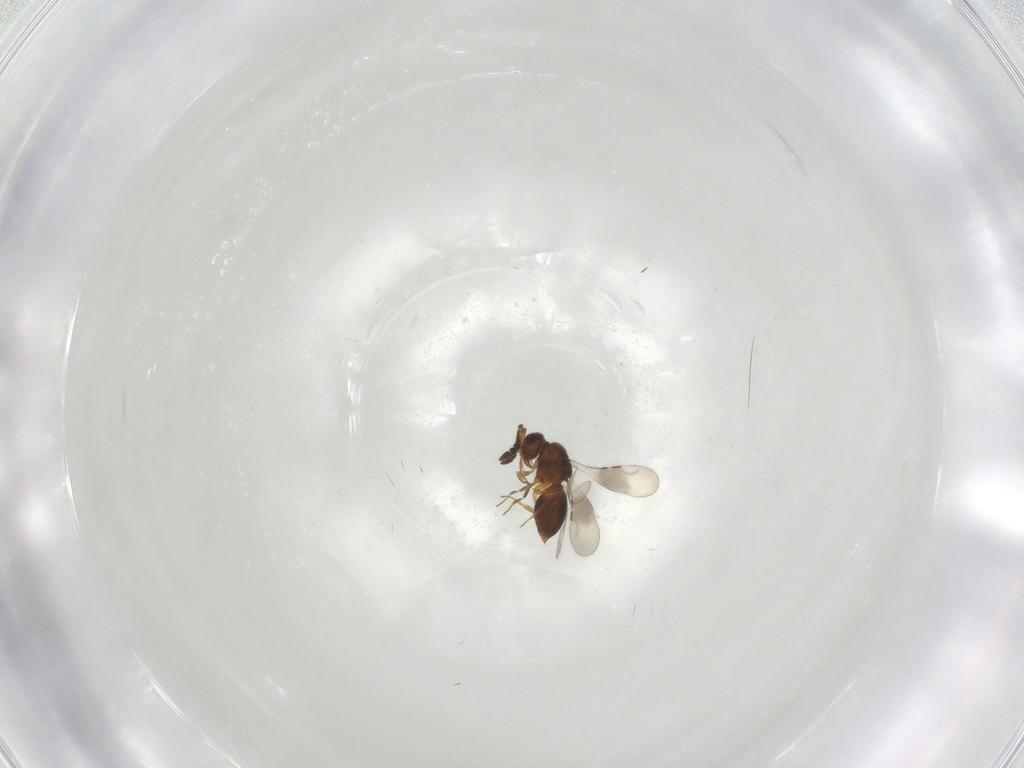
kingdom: Animalia
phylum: Arthropoda
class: Insecta
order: Hymenoptera
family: Ceraphronidae
